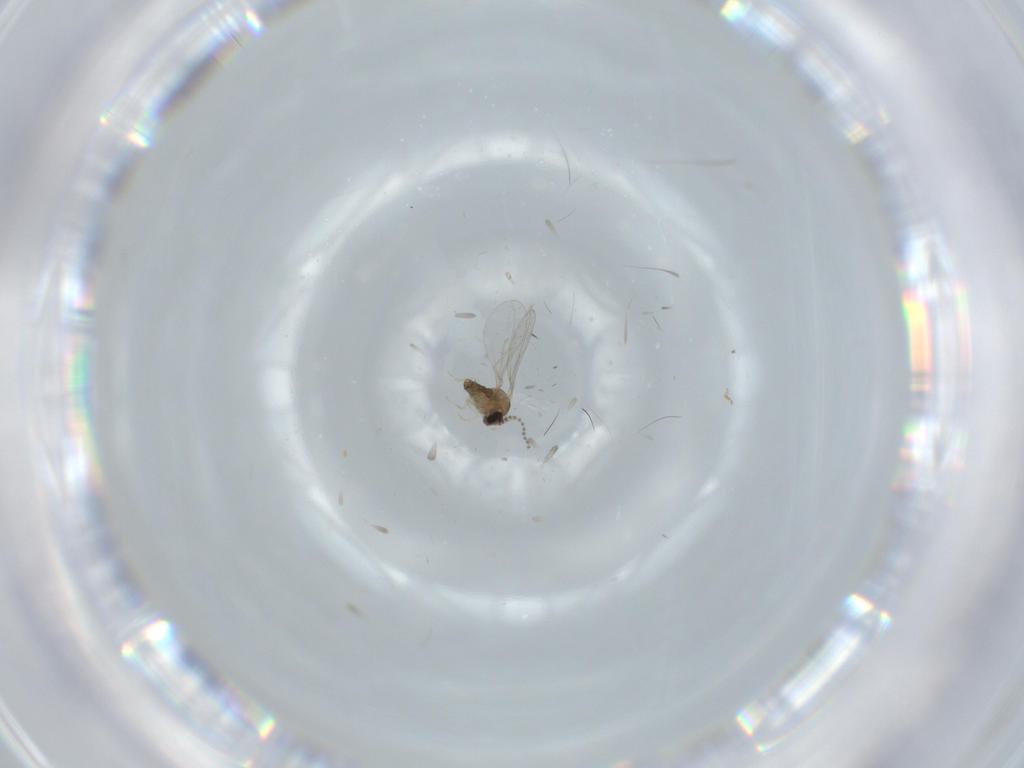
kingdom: Animalia
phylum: Arthropoda
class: Insecta
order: Diptera
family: Cecidomyiidae
